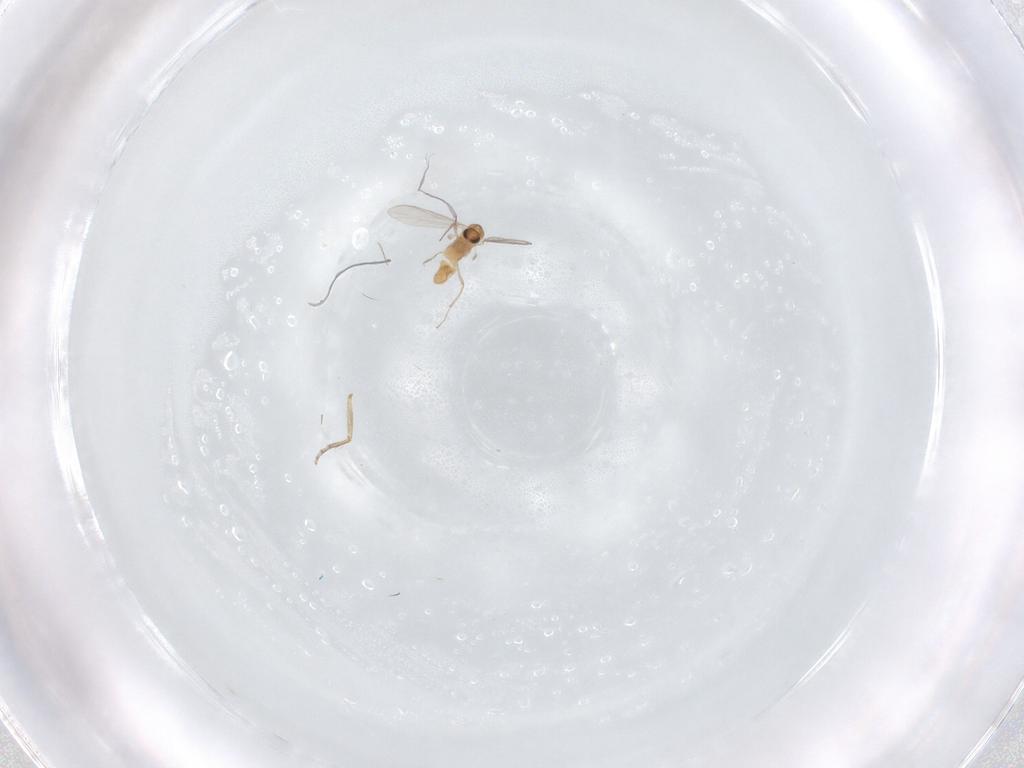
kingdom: Animalia
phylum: Arthropoda
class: Insecta
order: Diptera
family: Chironomidae
